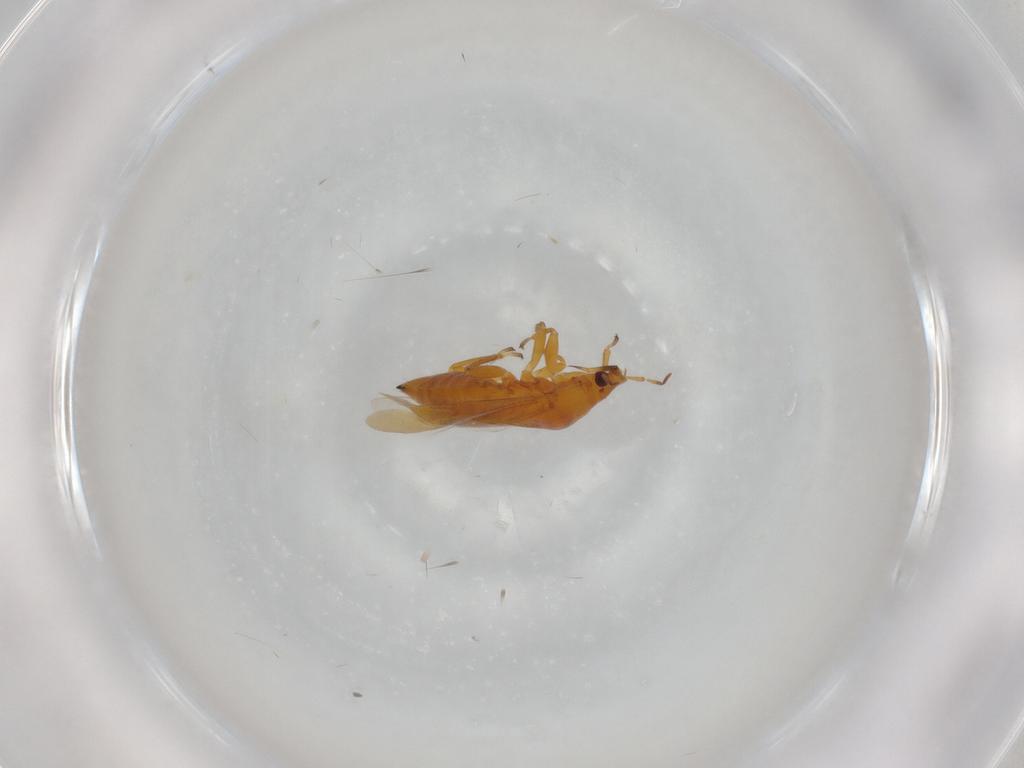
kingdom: Animalia
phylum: Arthropoda
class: Insecta
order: Hemiptera
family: Anthocoridae
